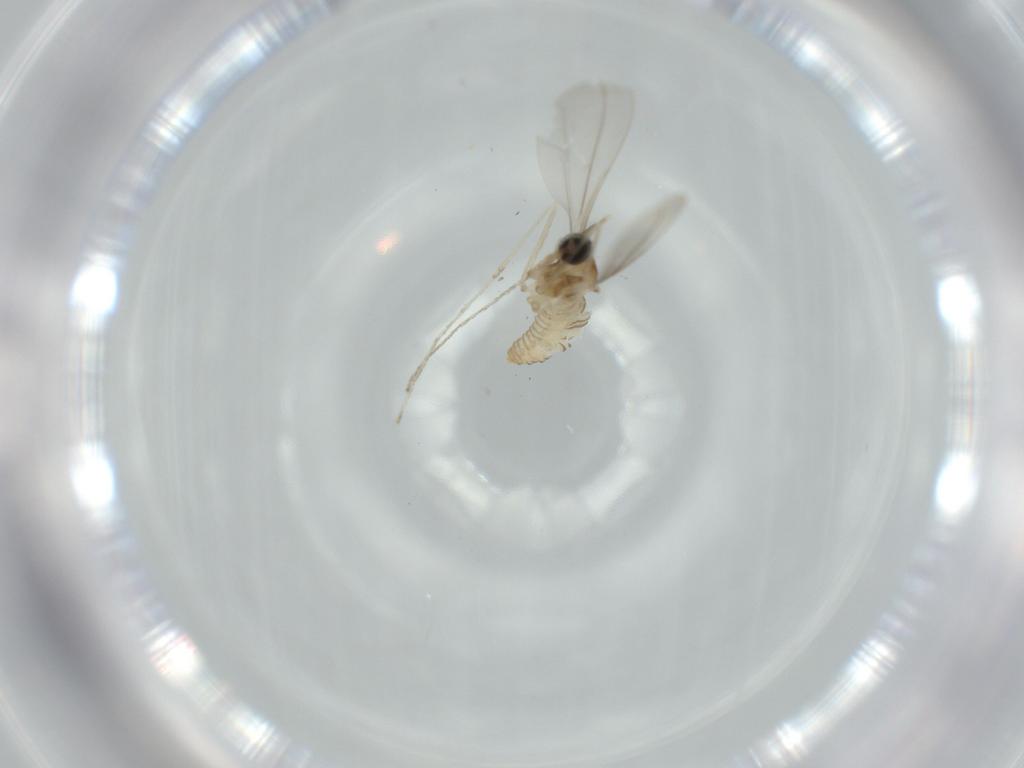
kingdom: Animalia
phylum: Arthropoda
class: Insecta
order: Diptera
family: Cecidomyiidae
